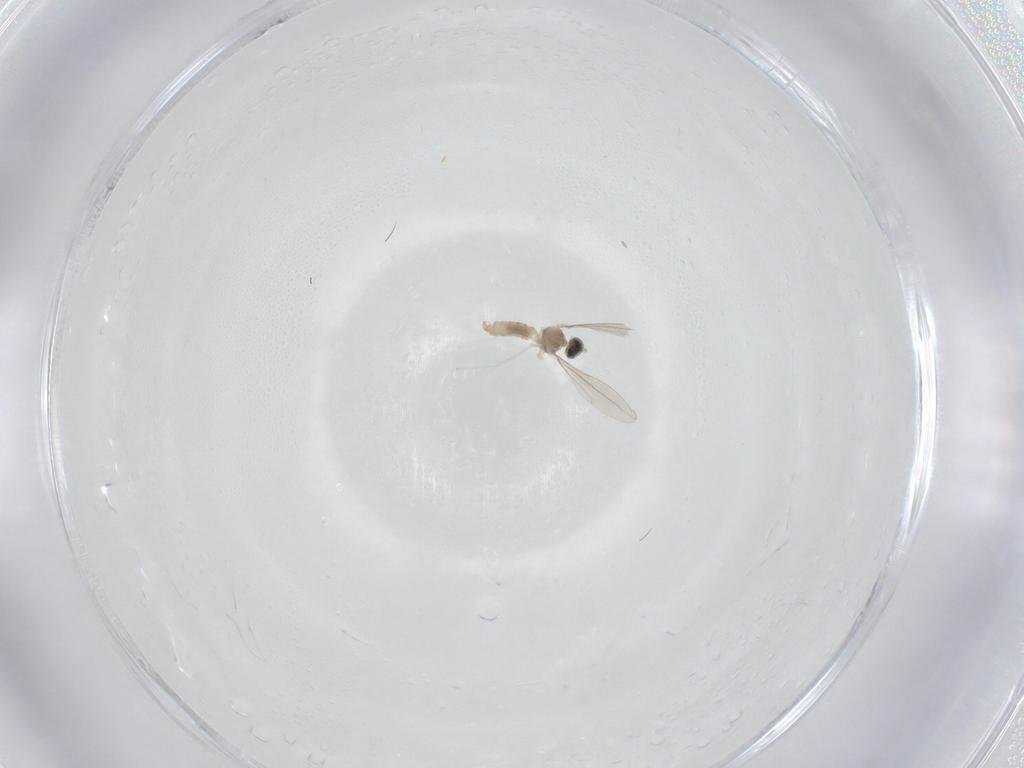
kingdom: Animalia
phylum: Arthropoda
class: Insecta
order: Diptera
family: Cecidomyiidae
